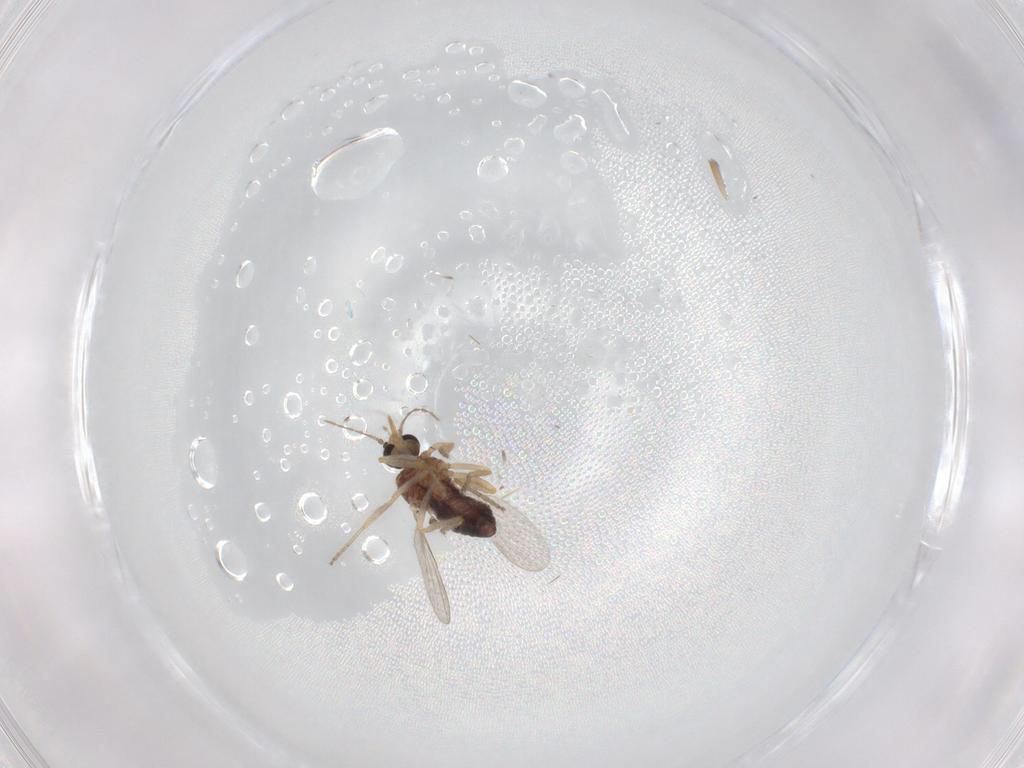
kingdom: Animalia
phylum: Arthropoda
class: Insecta
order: Diptera
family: Ceratopogonidae
